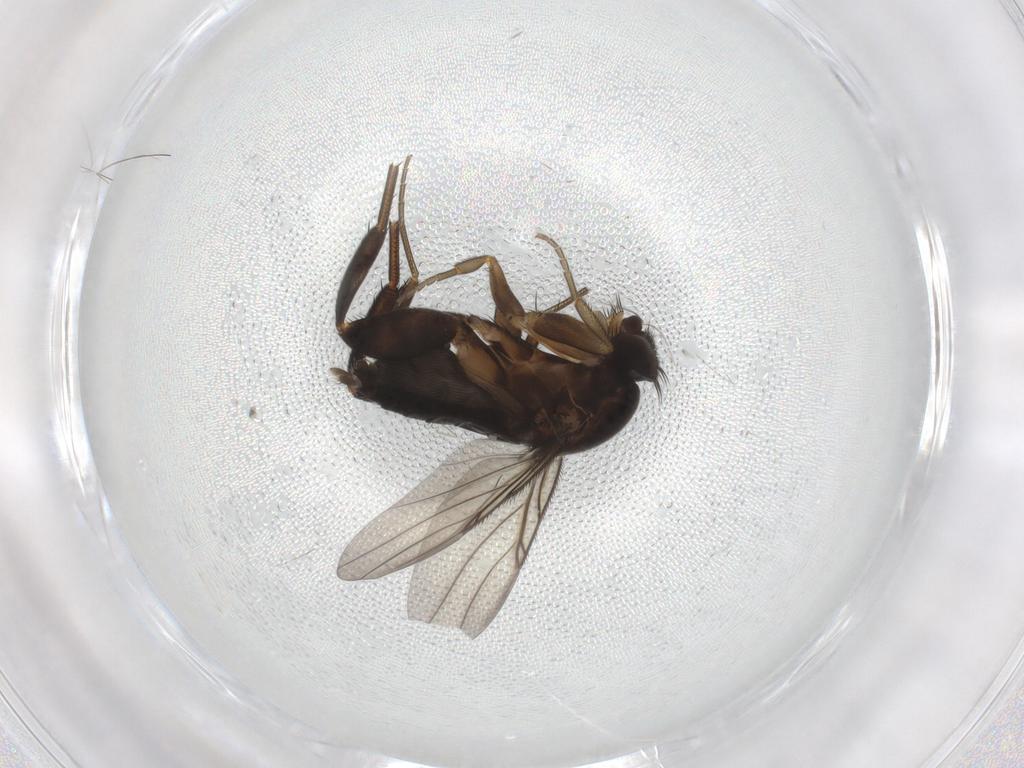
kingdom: Animalia
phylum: Arthropoda
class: Insecta
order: Diptera
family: Phoridae
